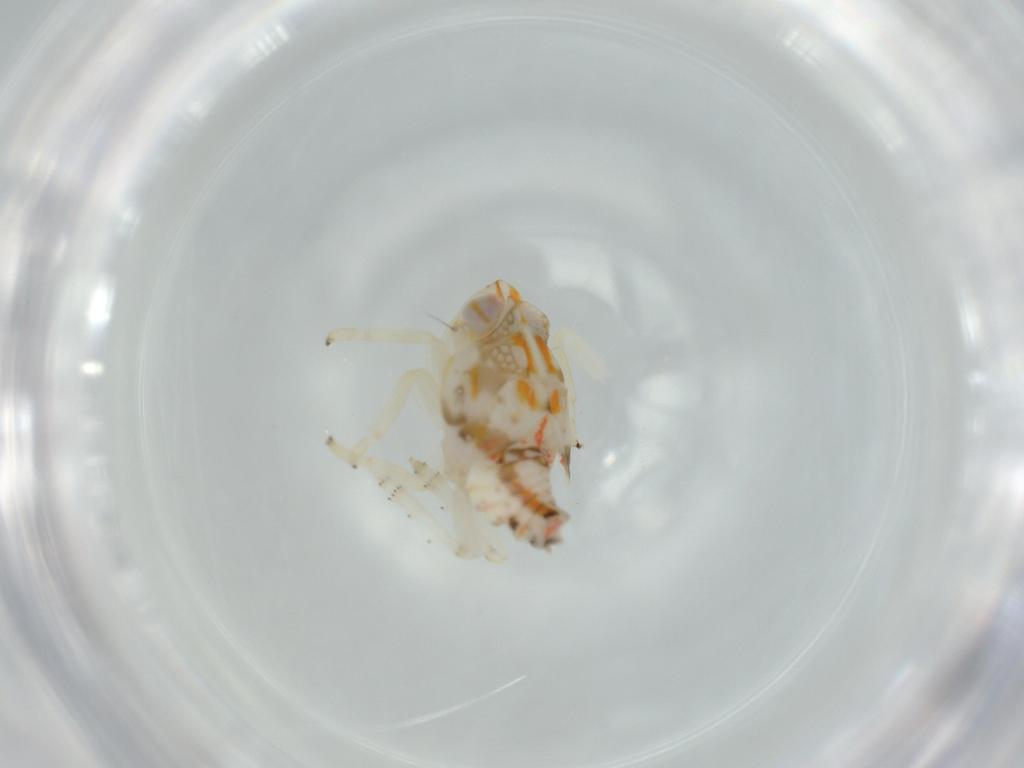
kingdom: Animalia
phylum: Arthropoda
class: Insecta
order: Hemiptera
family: Nogodinidae
